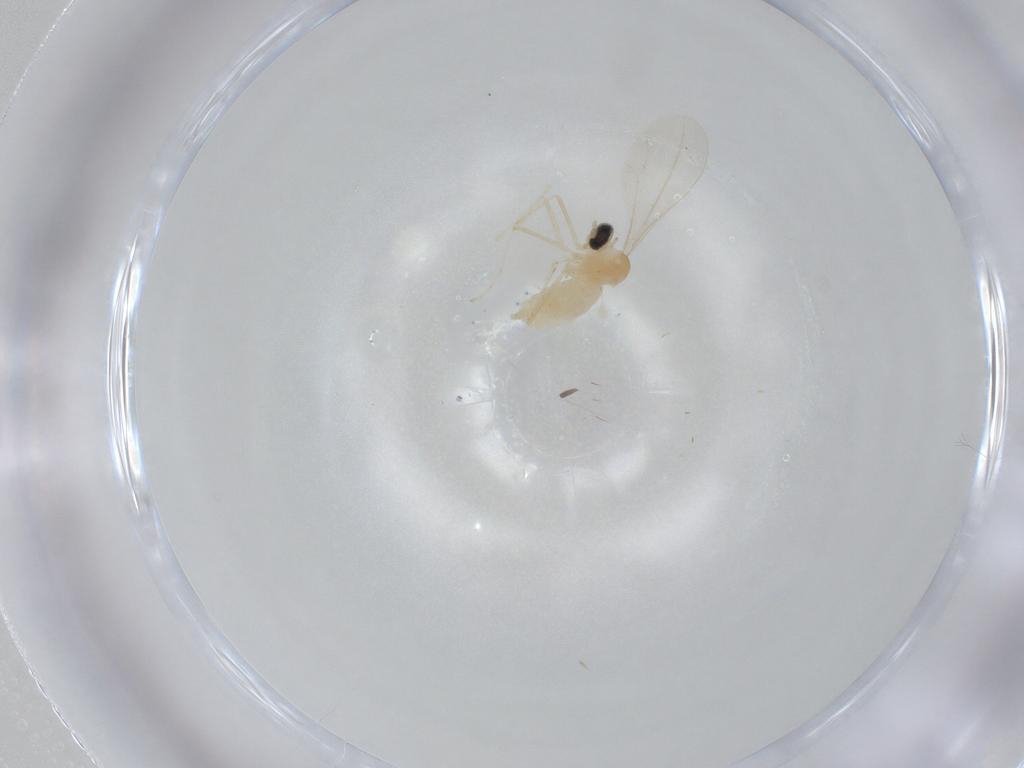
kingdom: Animalia
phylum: Arthropoda
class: Insecta
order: Diptera
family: Cecidomyiidae
